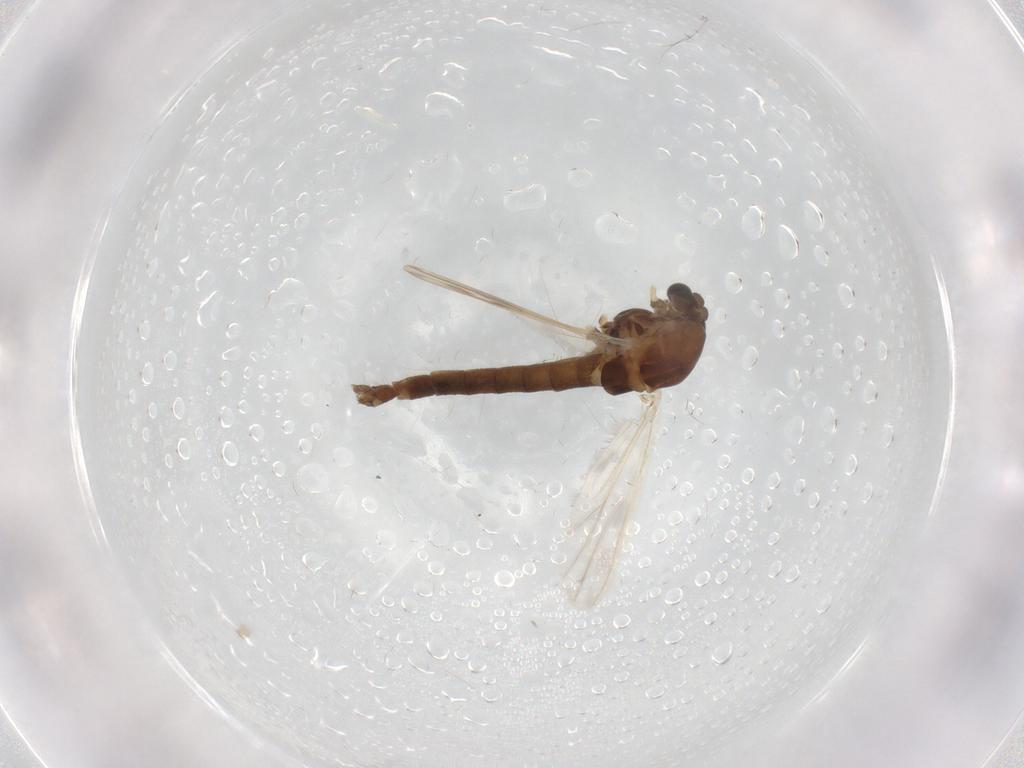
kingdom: Animalia
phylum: Arthropoda
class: Insecta
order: Diptera
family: Chironomidae
